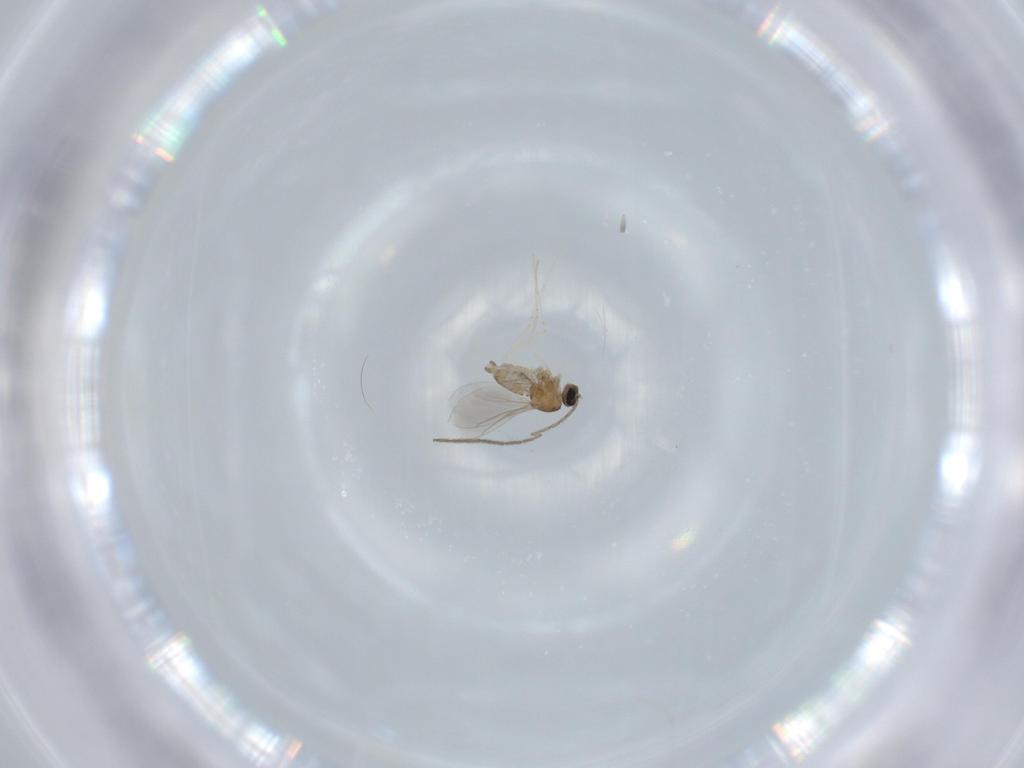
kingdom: Animalia
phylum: Arthropoda
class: Insecta
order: Diptera
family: Cecidomyiidae
